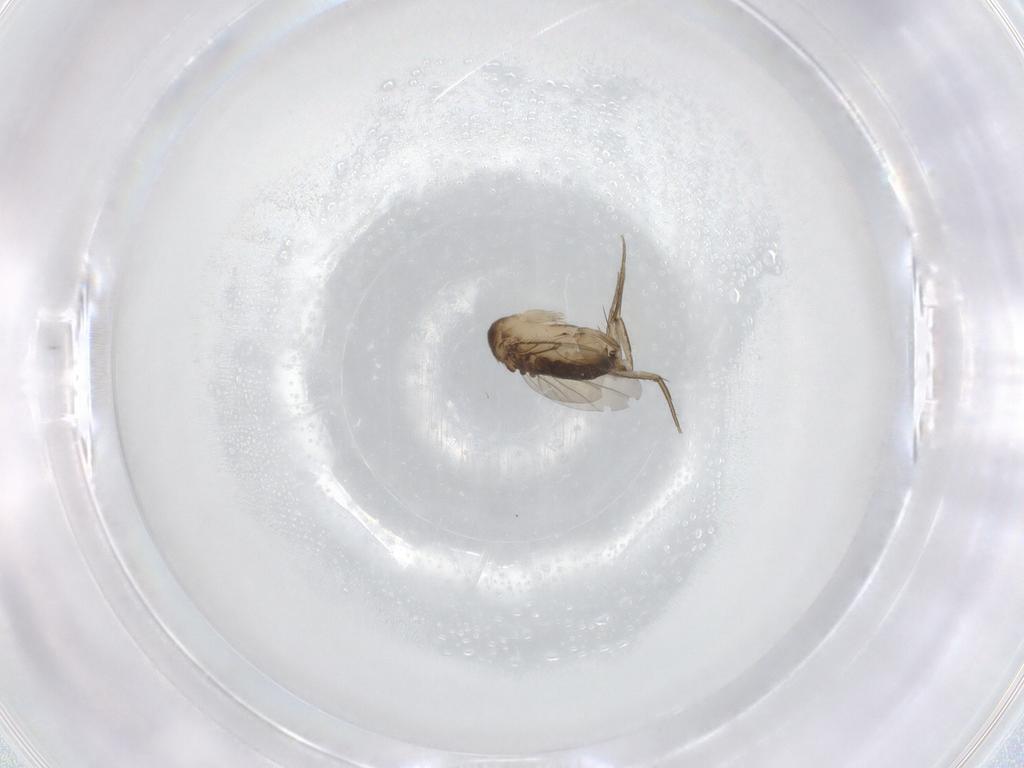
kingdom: Animalia
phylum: Arthropoda
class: Insecta
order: Diptera
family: Phoridae
